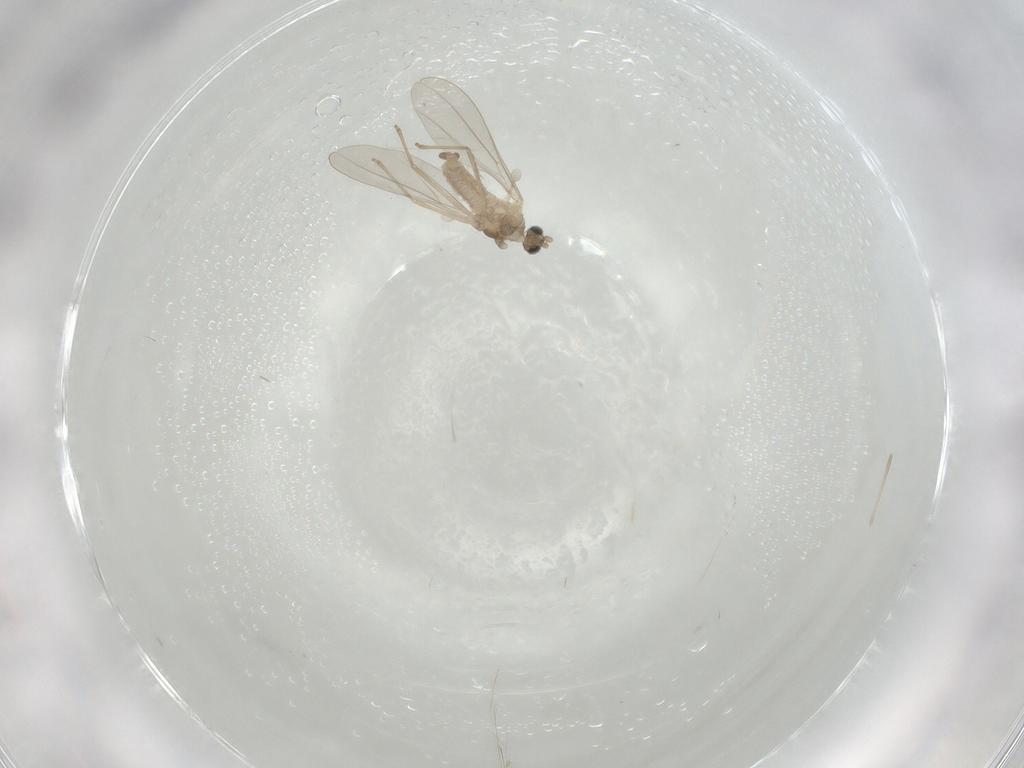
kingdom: Animalia
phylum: Arthropoda
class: Insecta
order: Diptera
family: Cecidomyiidae
